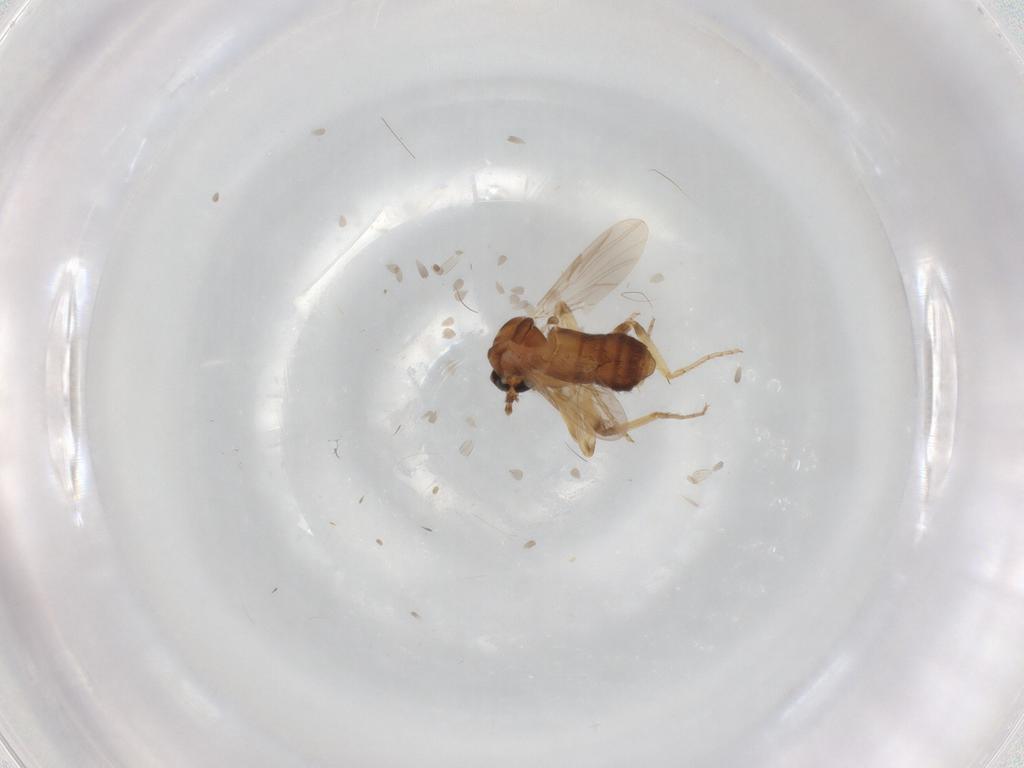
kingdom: Animalia
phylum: Arthropoda
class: Insecta
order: Diptera
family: Ceratopogonidae
